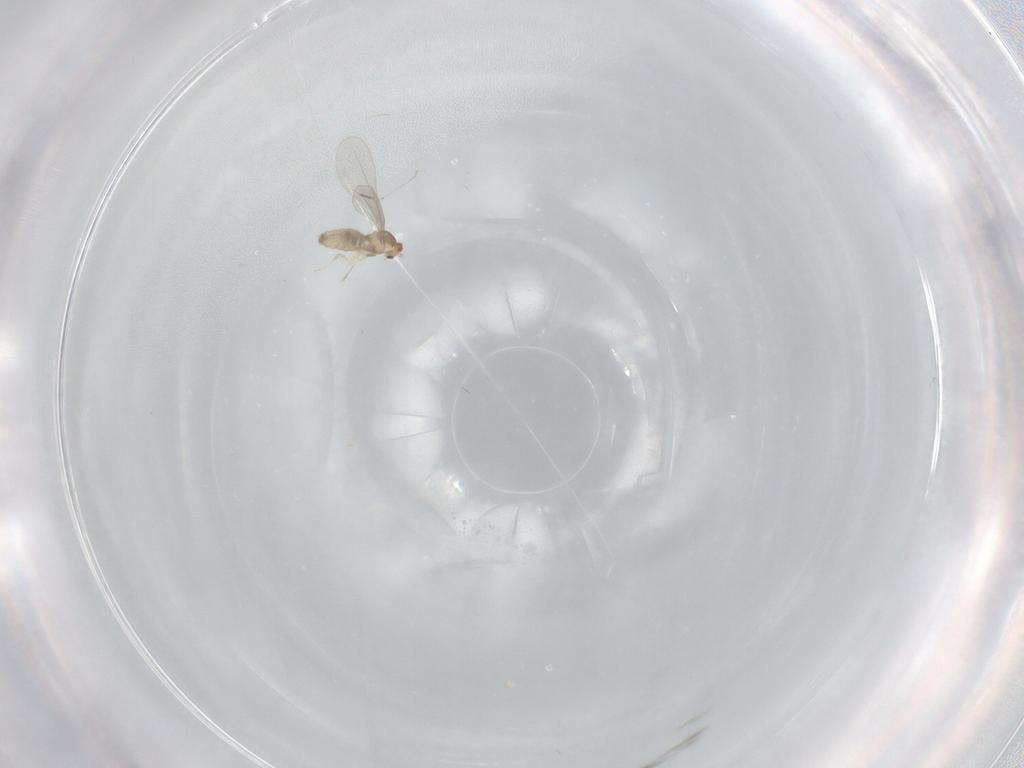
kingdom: Animalia
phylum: Arthropoda
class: Insecta
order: Diptera
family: Cecidomyiidae
